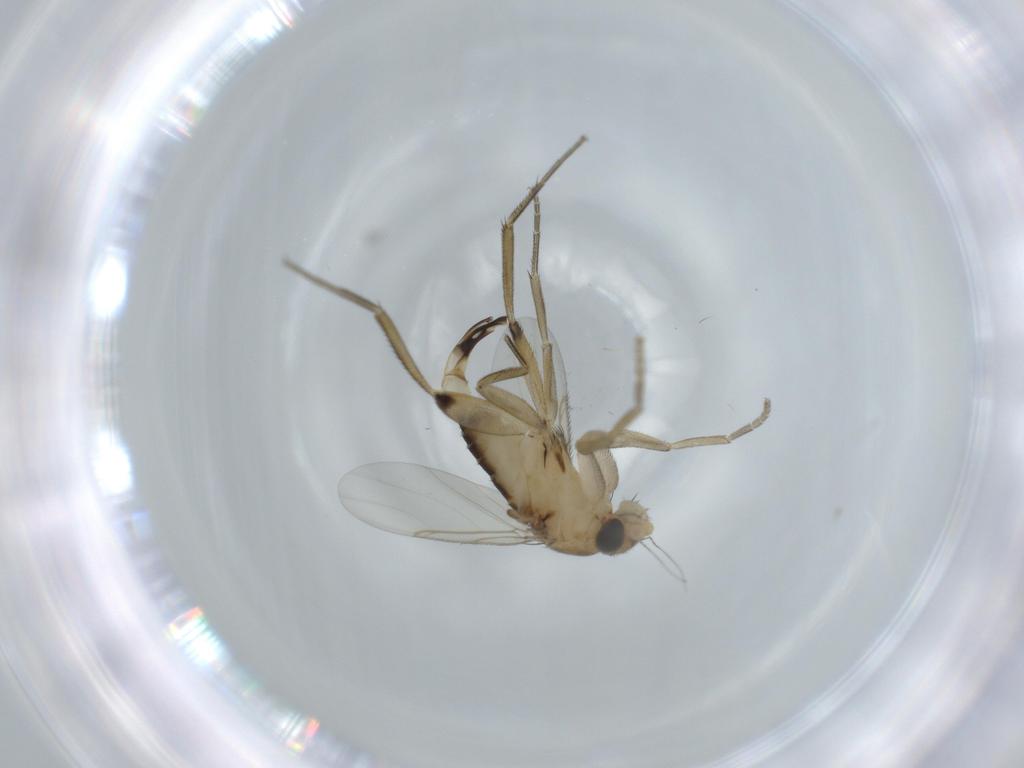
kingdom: Animalia
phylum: Arthropoda
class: Insecta
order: Diptera
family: Phoridae
